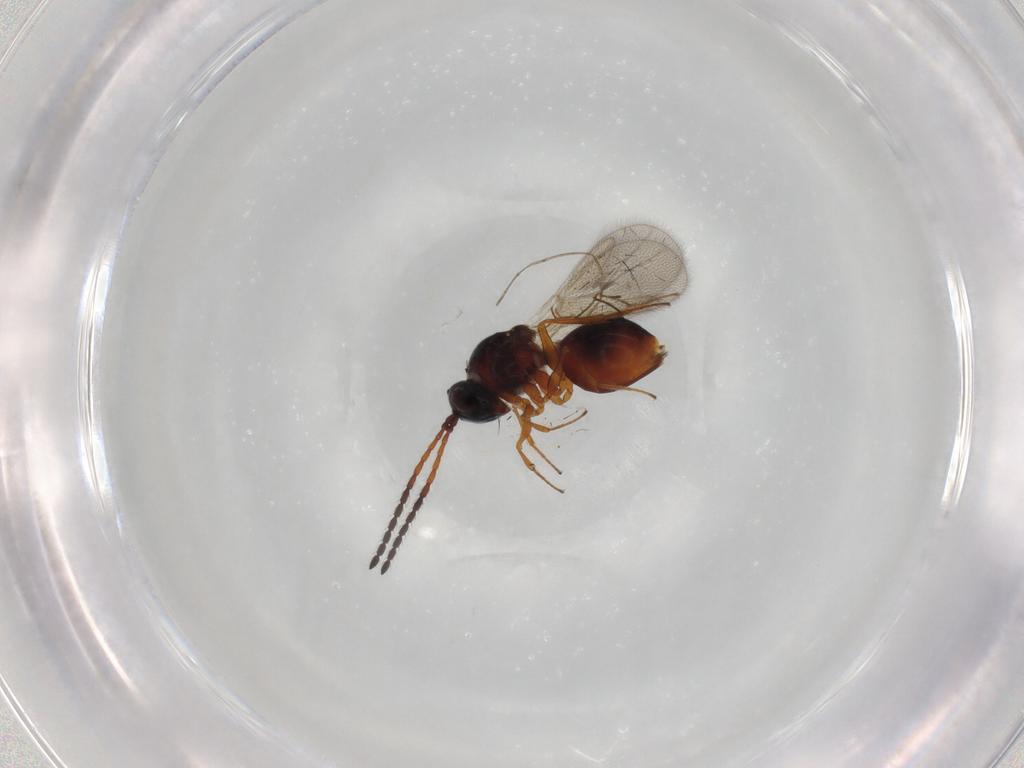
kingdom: Animalia
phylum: Arthropoda
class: Insecta
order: Hymenoptera
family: Figitidae
